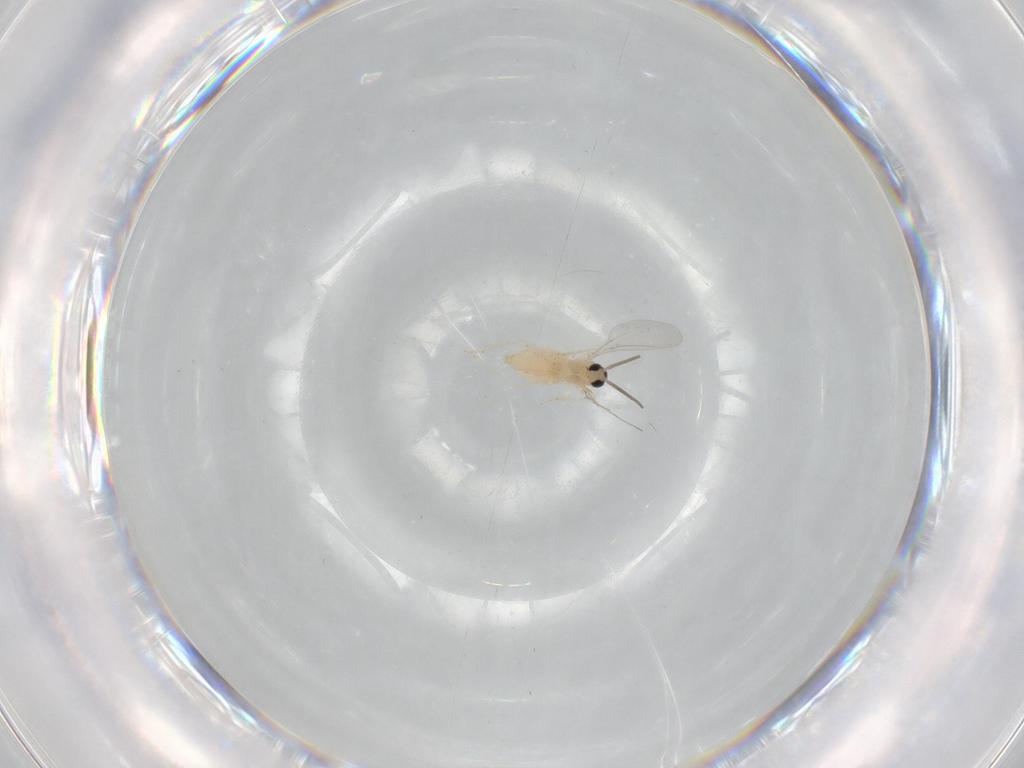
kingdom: Animalia
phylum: Arthropoda
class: Insecta
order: Diptera
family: Cecidomyiidae
